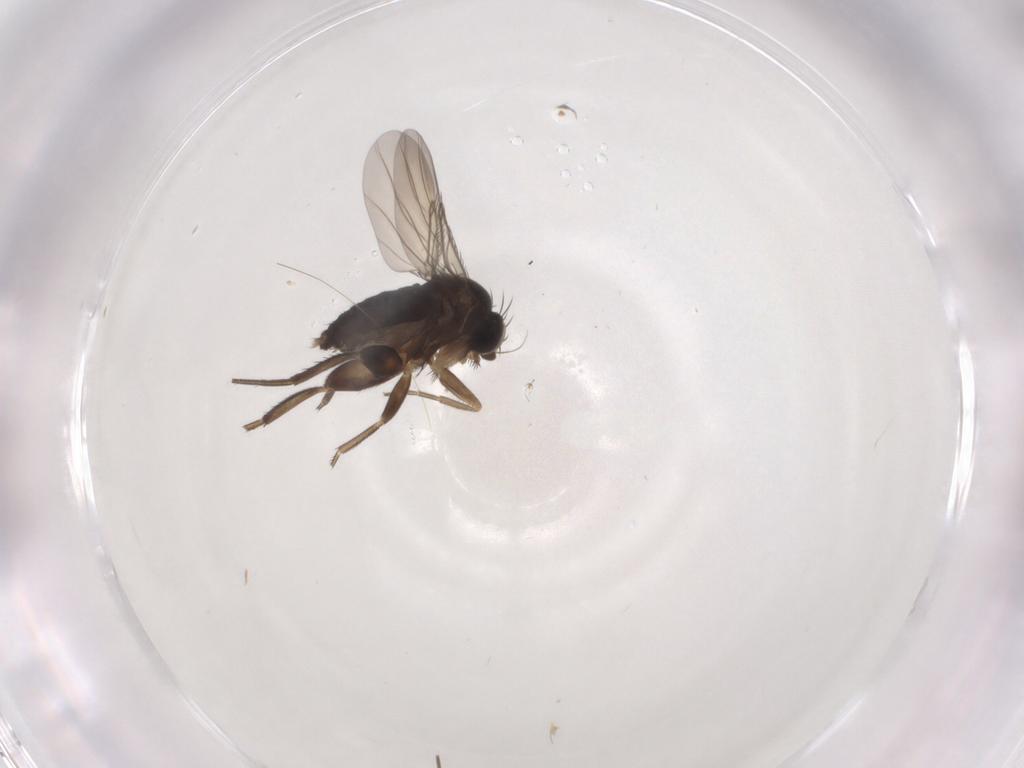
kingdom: Animalia
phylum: Arthropoda
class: Insecta
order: Diptera
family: Phoridae
